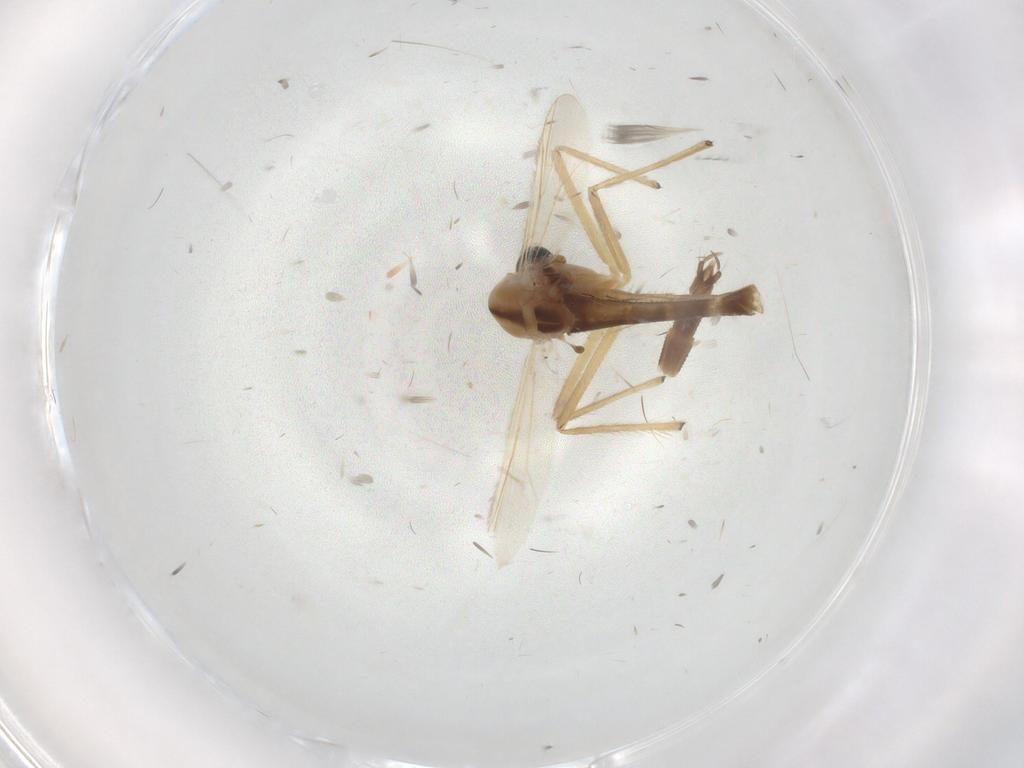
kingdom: Animalia
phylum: Arthropoda
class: Insecta
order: Diptera
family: Chironomidae
